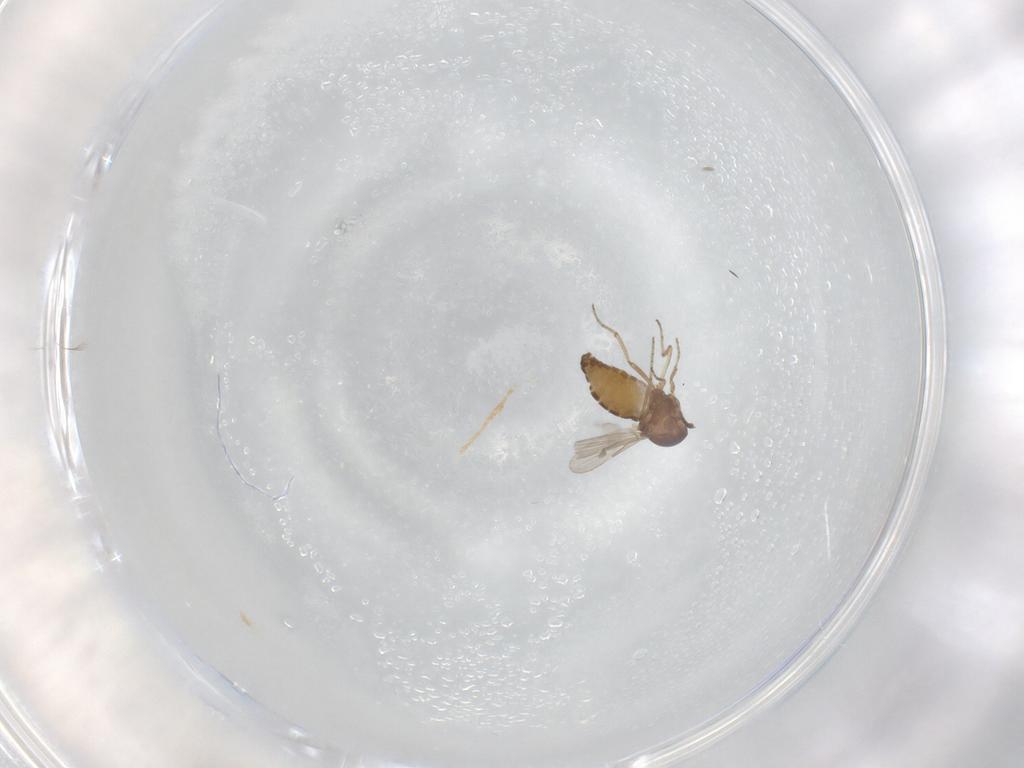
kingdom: Animalia
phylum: Arthropoda
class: Insecta
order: Diptera
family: Ceratopogonidae
